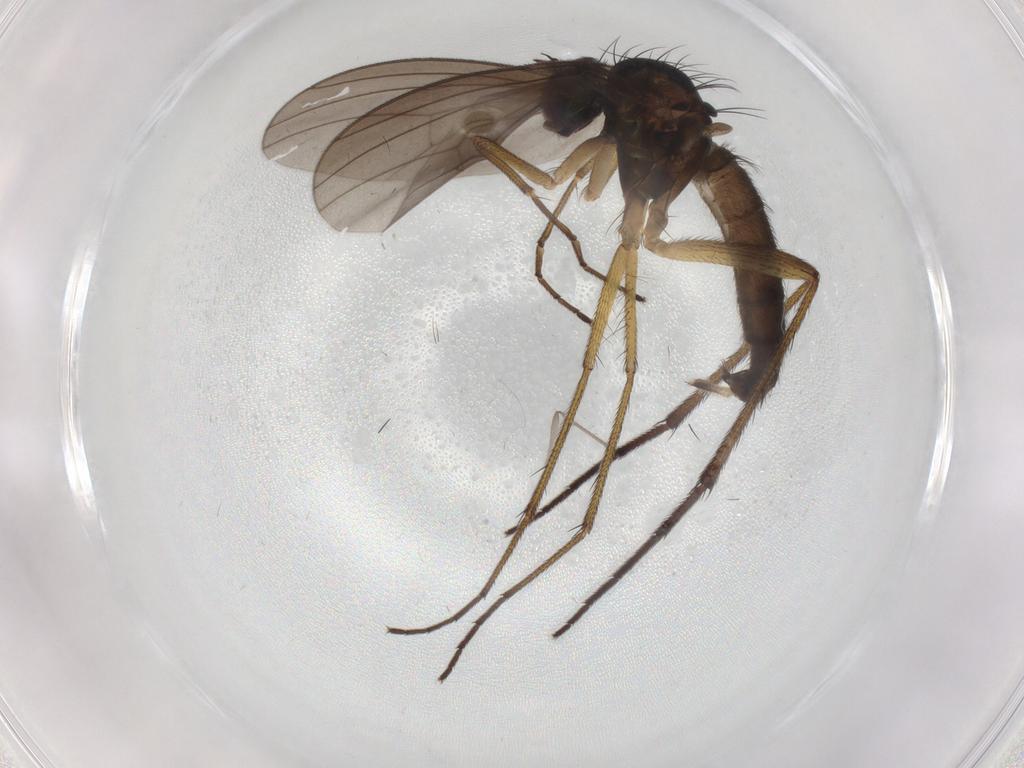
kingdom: Animalia
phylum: Arthropoda
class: Insecta
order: Diptera
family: Dolichopodidae
